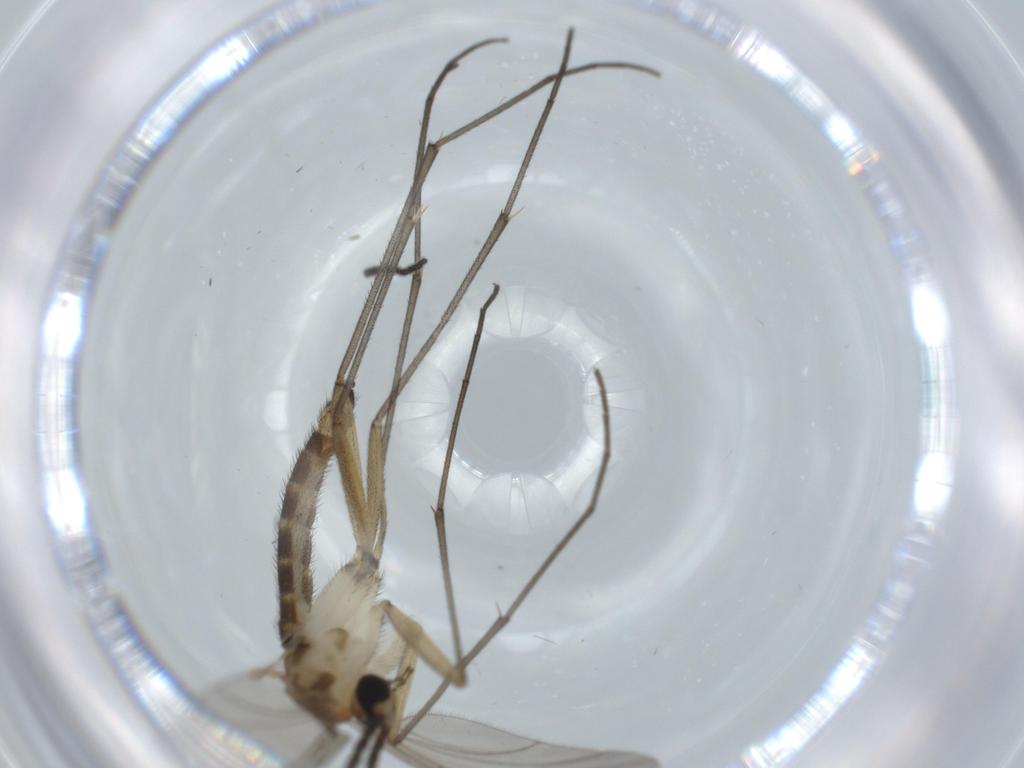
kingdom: Animalia
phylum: Arthropoda
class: Insecta
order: Diptera
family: Sciaridae
